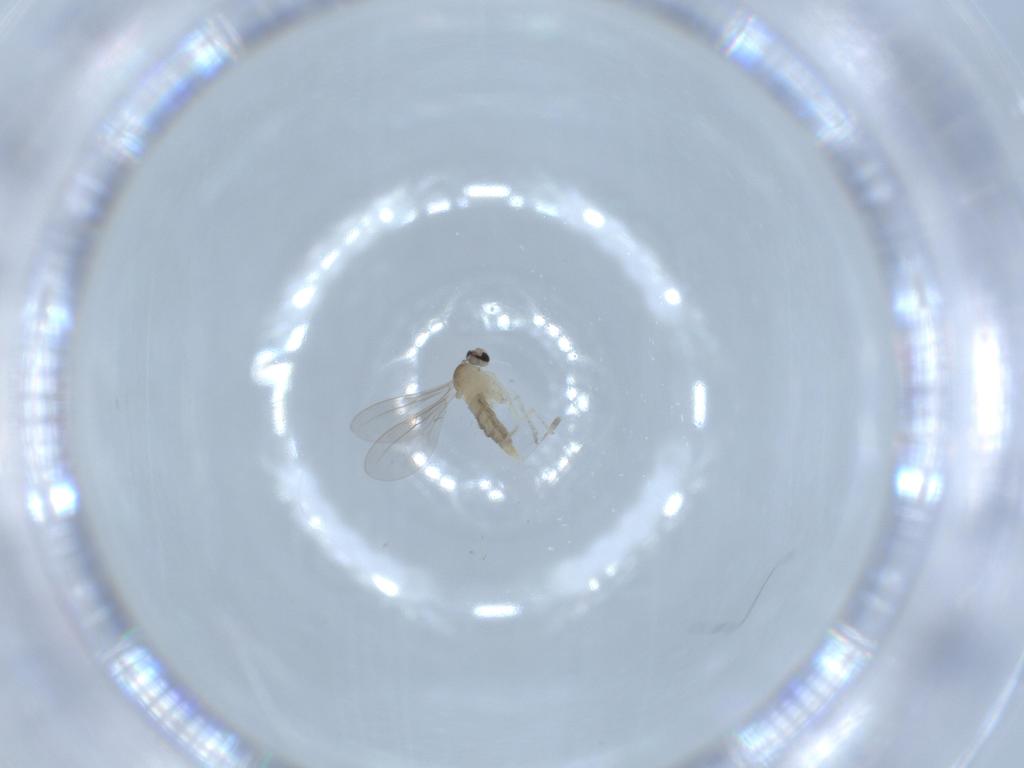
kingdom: Animalia
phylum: Arthropoda
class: Insecta
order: Diptera
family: Cecidomyiidae
